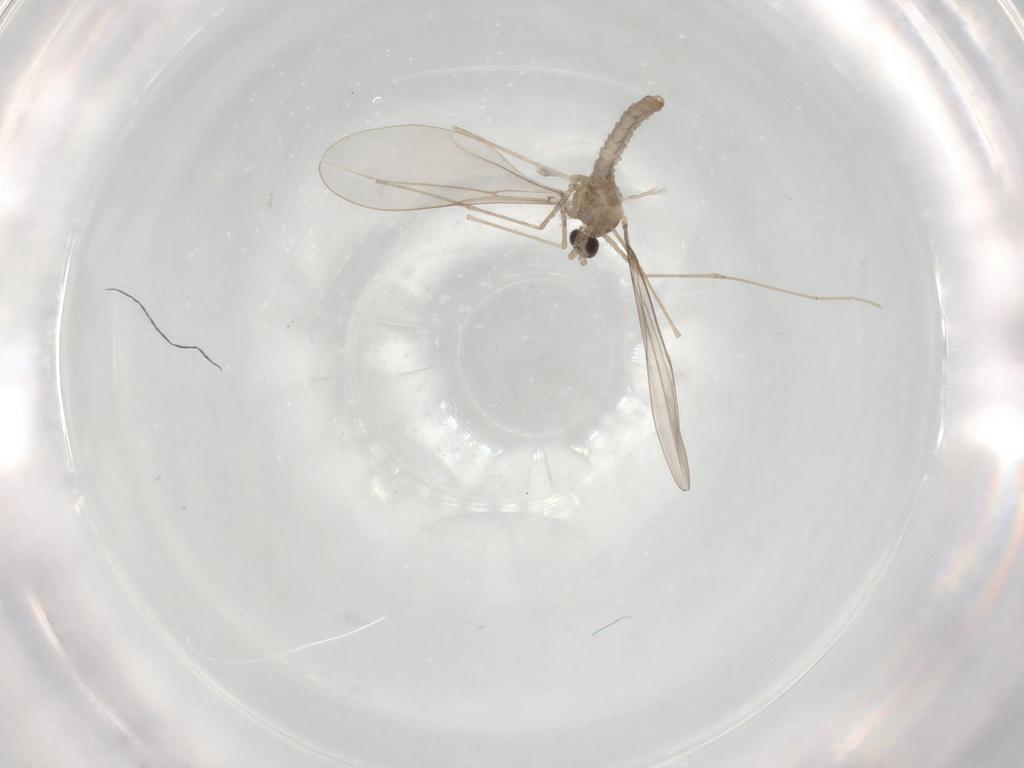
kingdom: Animalia
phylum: Arthropoda
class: Insecta
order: Diptera
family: Cecidomyiidae
